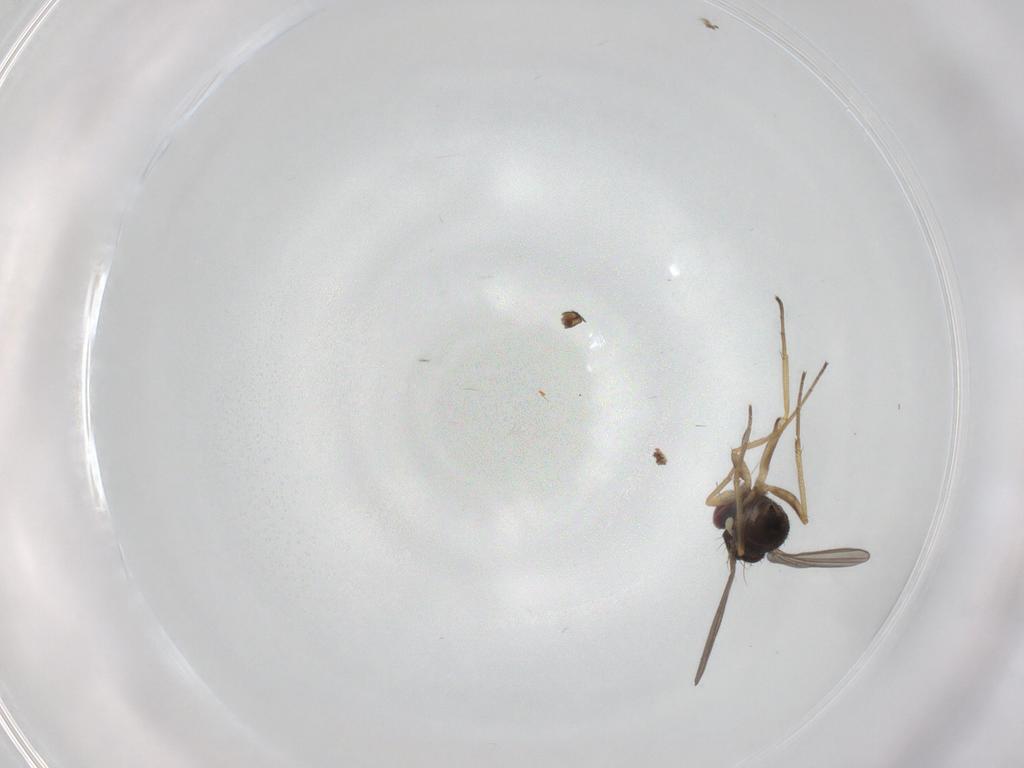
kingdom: Animalia
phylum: Arthropoda
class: Insecta
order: Diptera
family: Dolichopodidae
